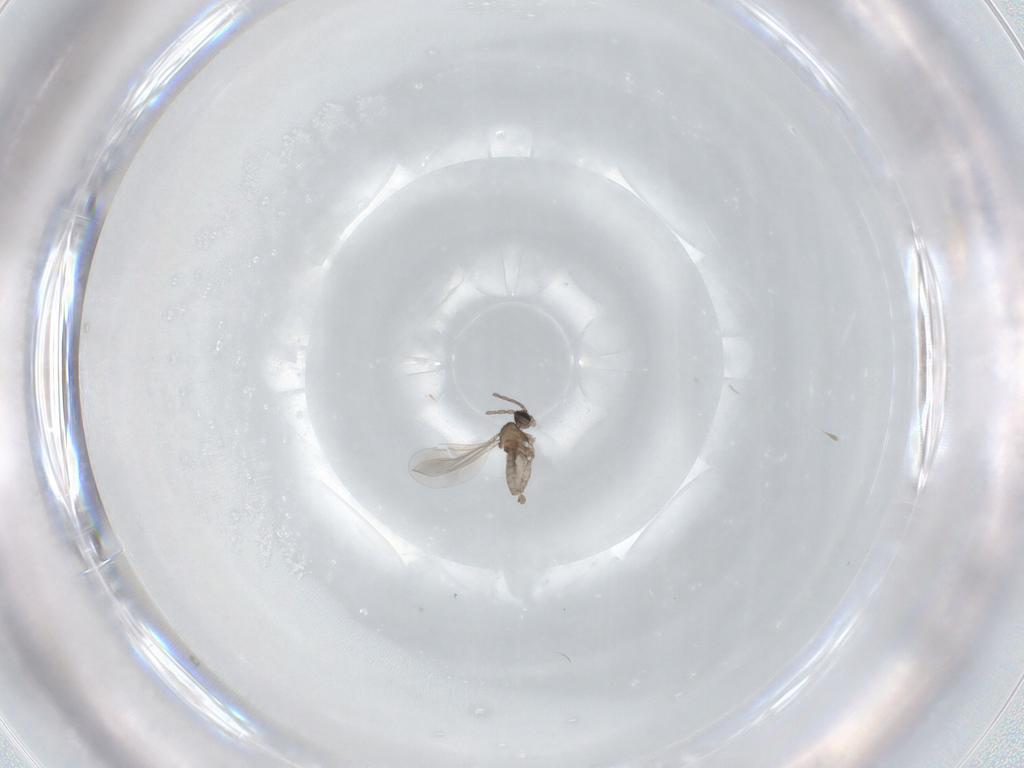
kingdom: Animalia
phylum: Arthropoda
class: Insecta
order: Diptera
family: Cecidomyiidae
